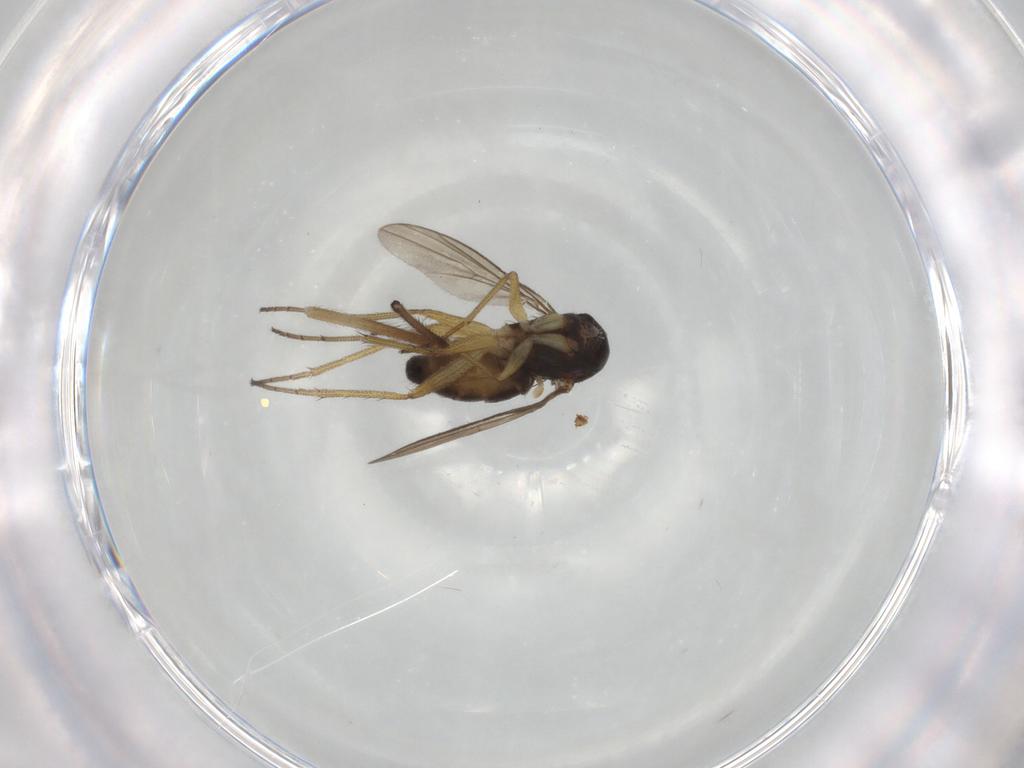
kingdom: Animalia
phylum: Arthropoda
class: Insecta
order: Diptera
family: Dolichopodidae
